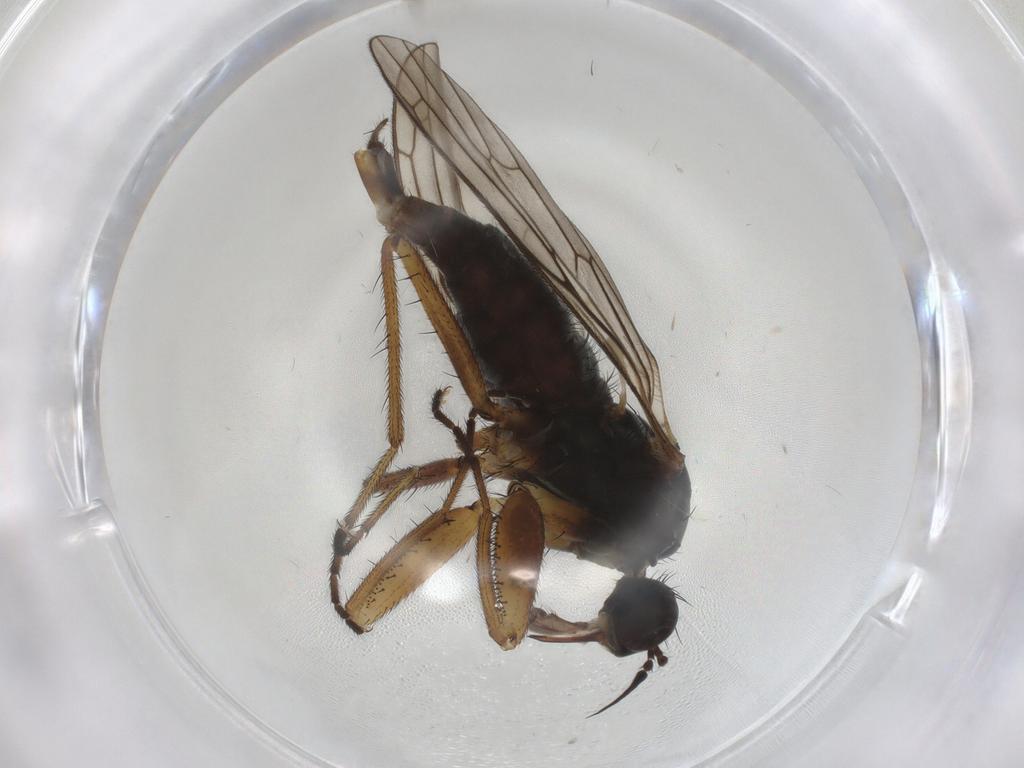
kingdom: Animalia
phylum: Arthropoda
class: Insecta
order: Diptera
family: Empididae
